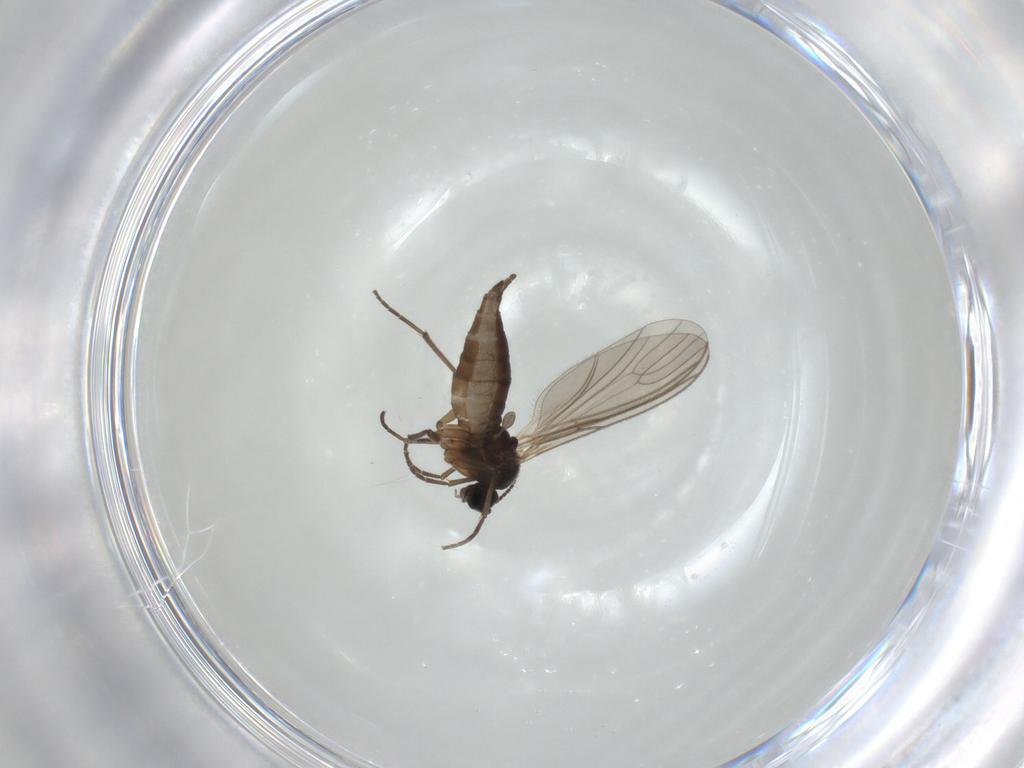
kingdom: Animalia
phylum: Arthropoda
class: Insecta
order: Diptera
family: Sciaridae
